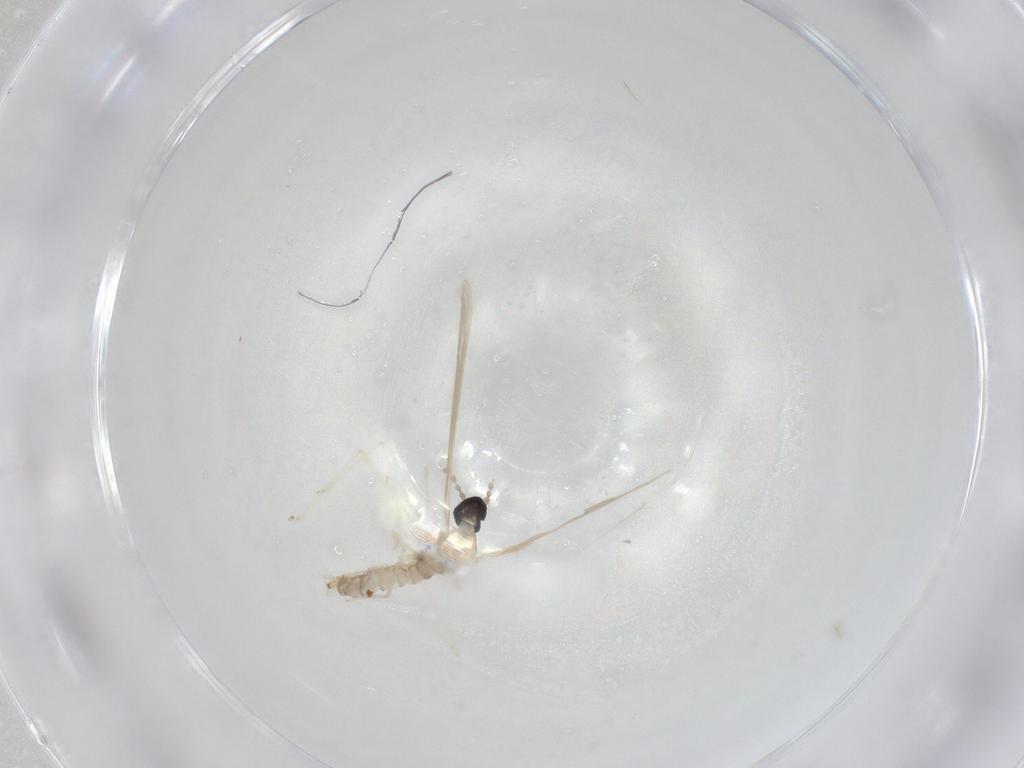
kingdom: Animalia
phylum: Arthropoda
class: Insecta
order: Diptera
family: Cecidomyiidae
